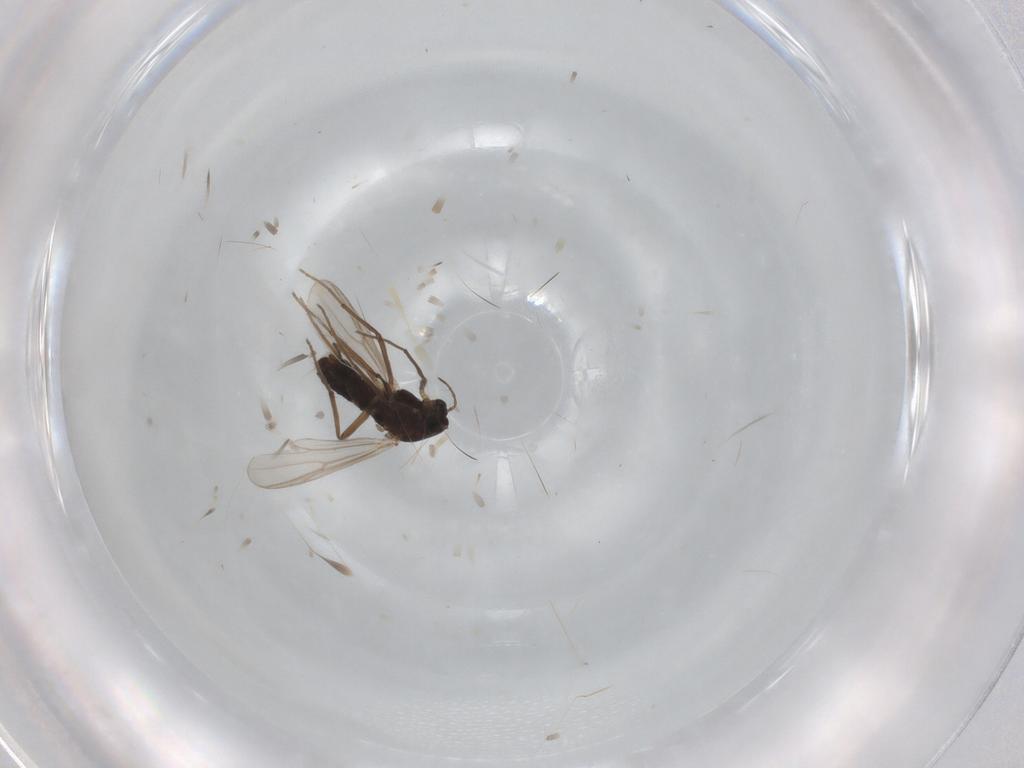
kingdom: Animalia
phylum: Arthropoda
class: Insecta
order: Diptera
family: Chironomidae
